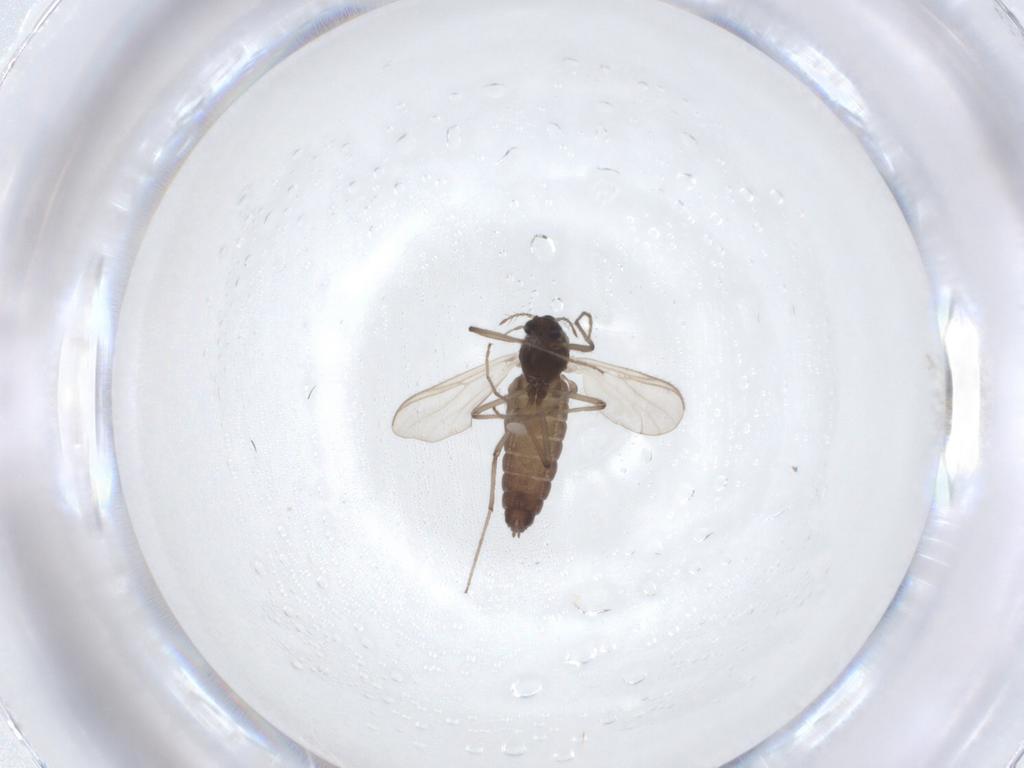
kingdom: Animalia
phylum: Arthropoda
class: Insecta
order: Diptera
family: Chironomidae
